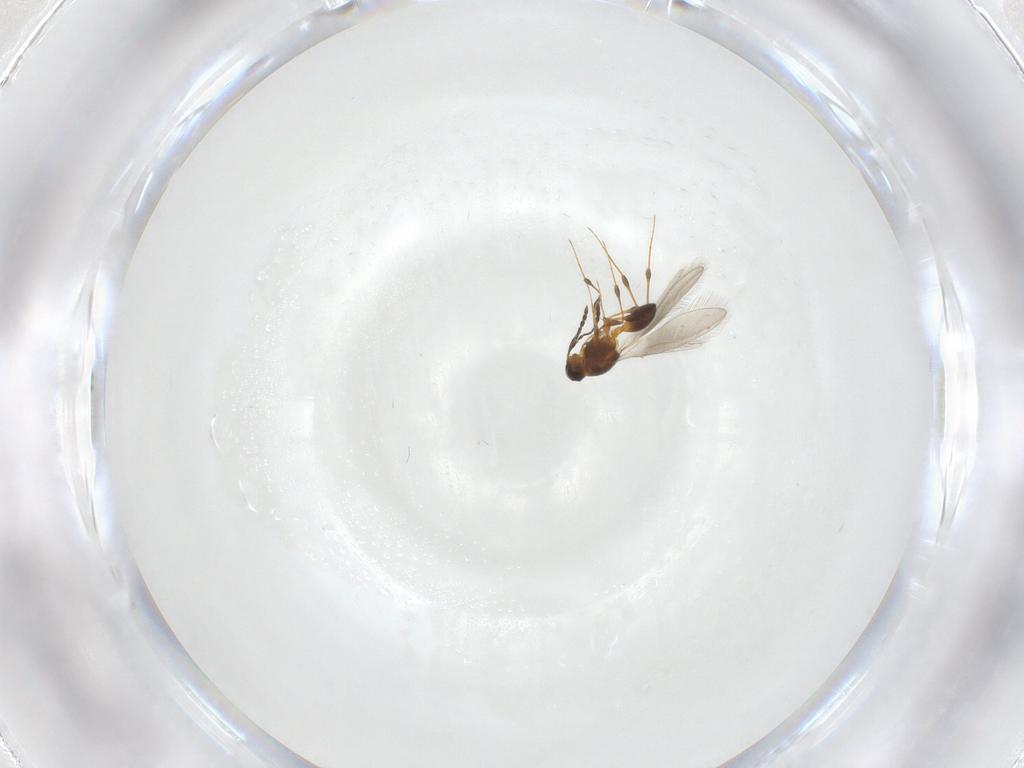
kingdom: Animalia
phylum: Arthropoda
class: Insecta
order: Hymenoptera
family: Platygastridae
